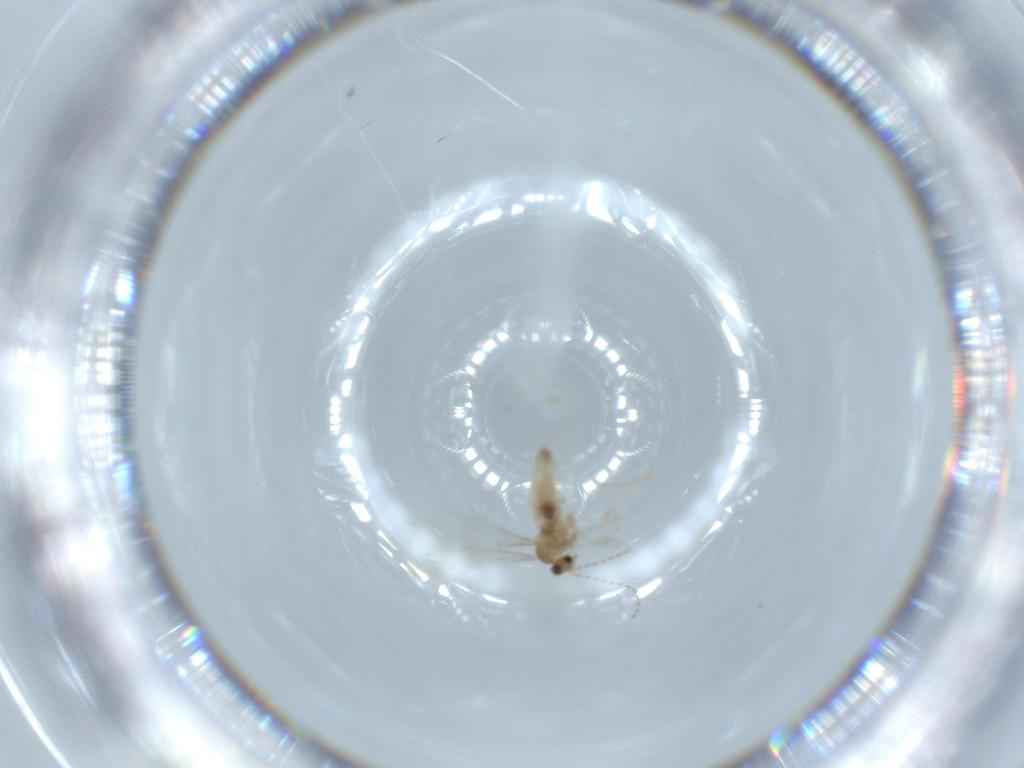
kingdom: Animalia
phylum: Arthropoda
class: Insecta
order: Diptera
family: Cecidomyiidae
